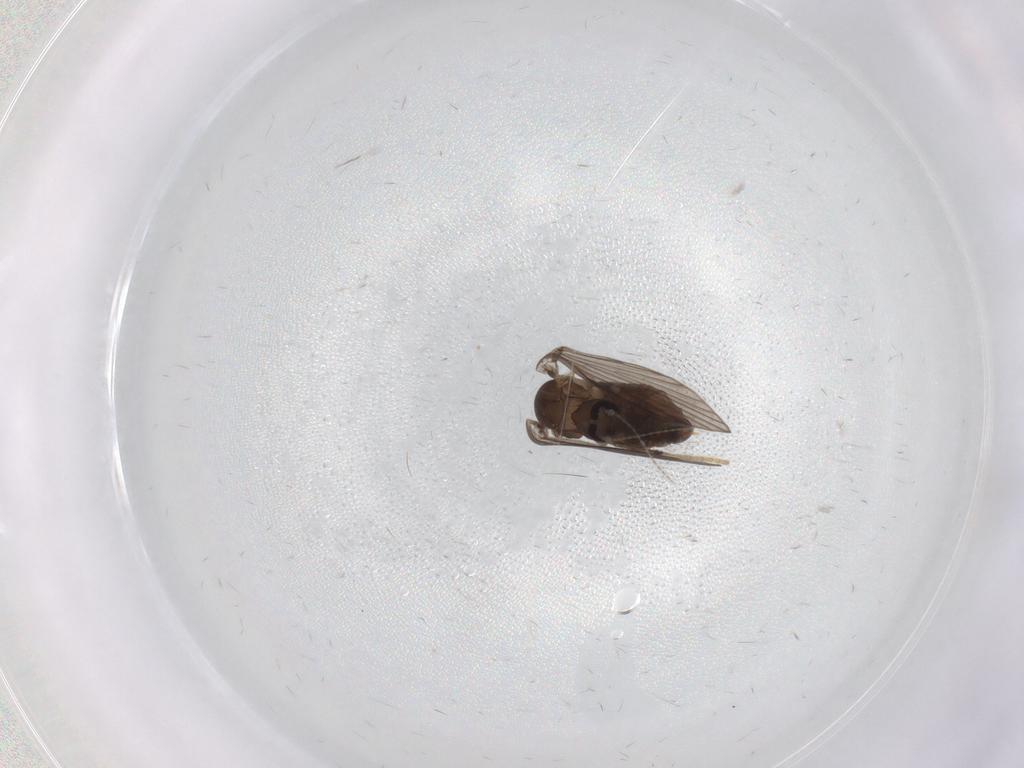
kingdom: Animalia
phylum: Arthropoda
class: Insecta
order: Diptera
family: Psychodidae
